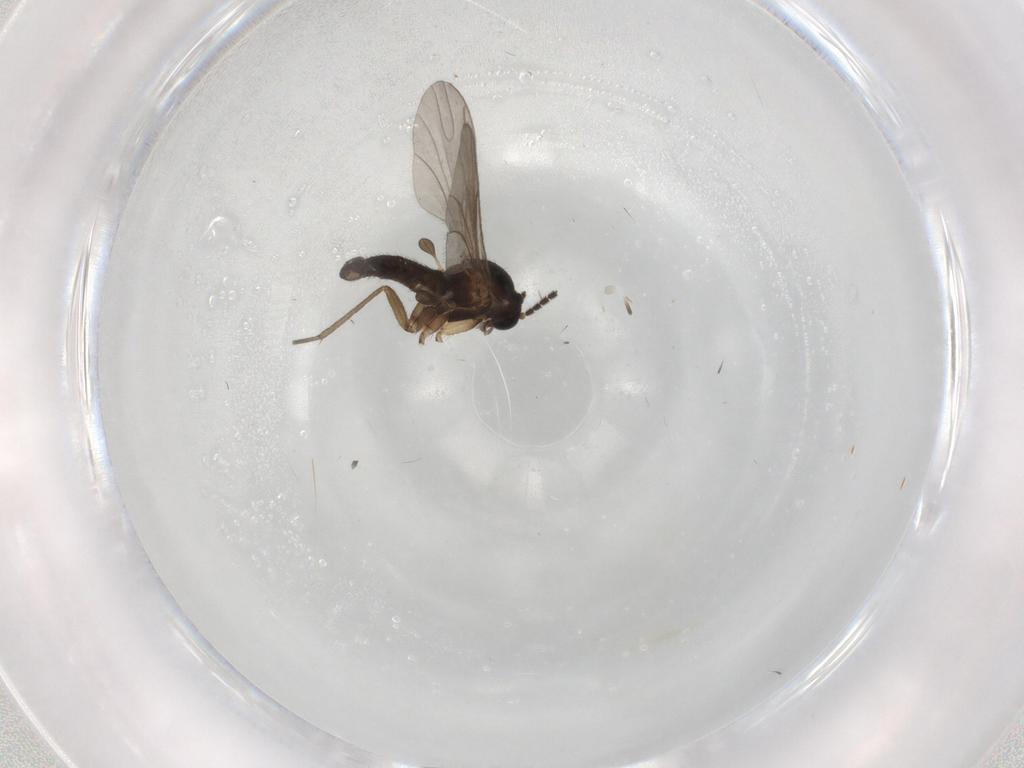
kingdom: Animalia
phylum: Arthropoda
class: Insecta
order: Diptera
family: Sciaridae
